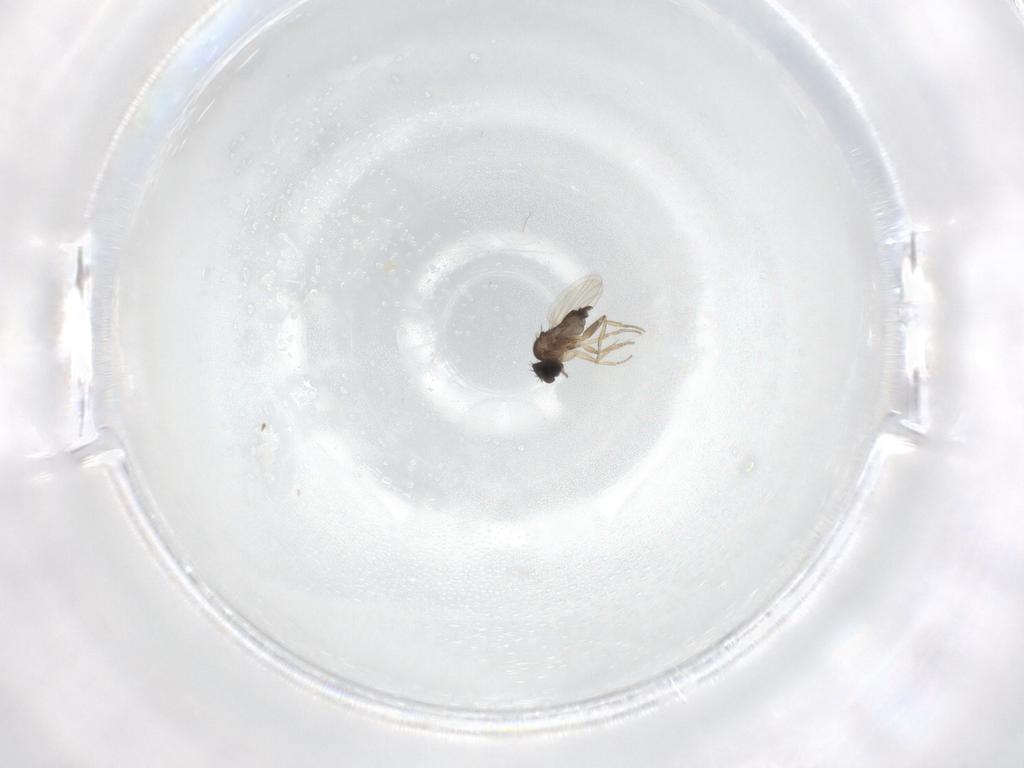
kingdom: Animalia
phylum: Arthropoda
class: Insecta
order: Diptera
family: Phoridae
